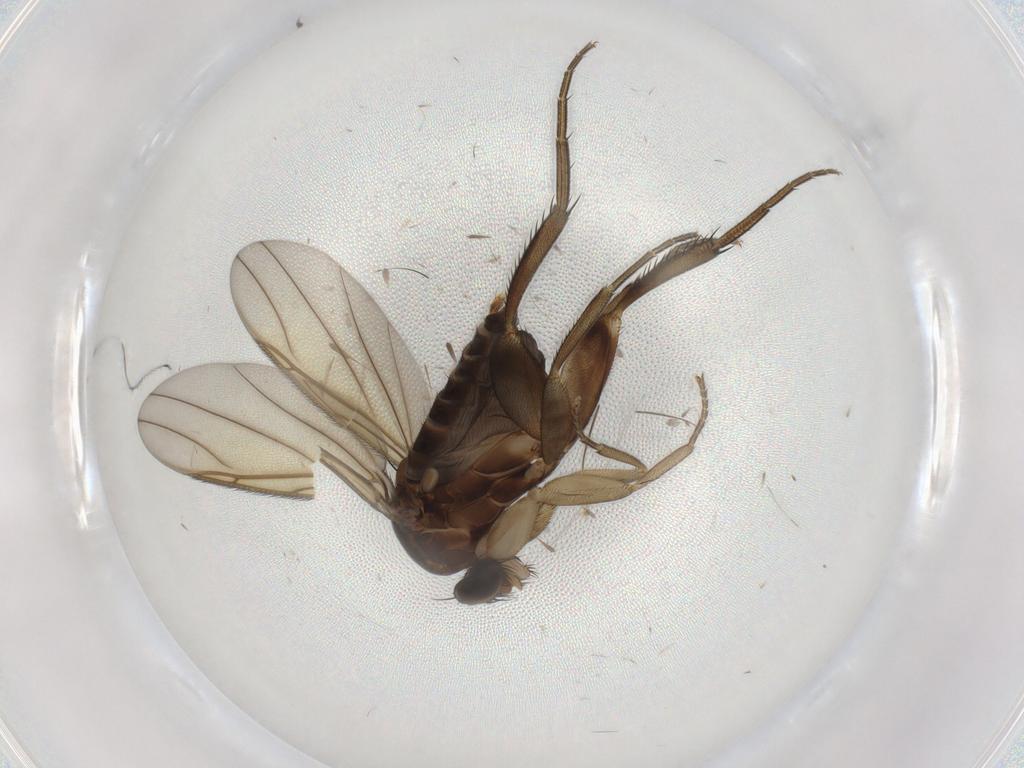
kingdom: Animalia
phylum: Arthropoda
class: Insecta
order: Diptera
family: Phoridae
